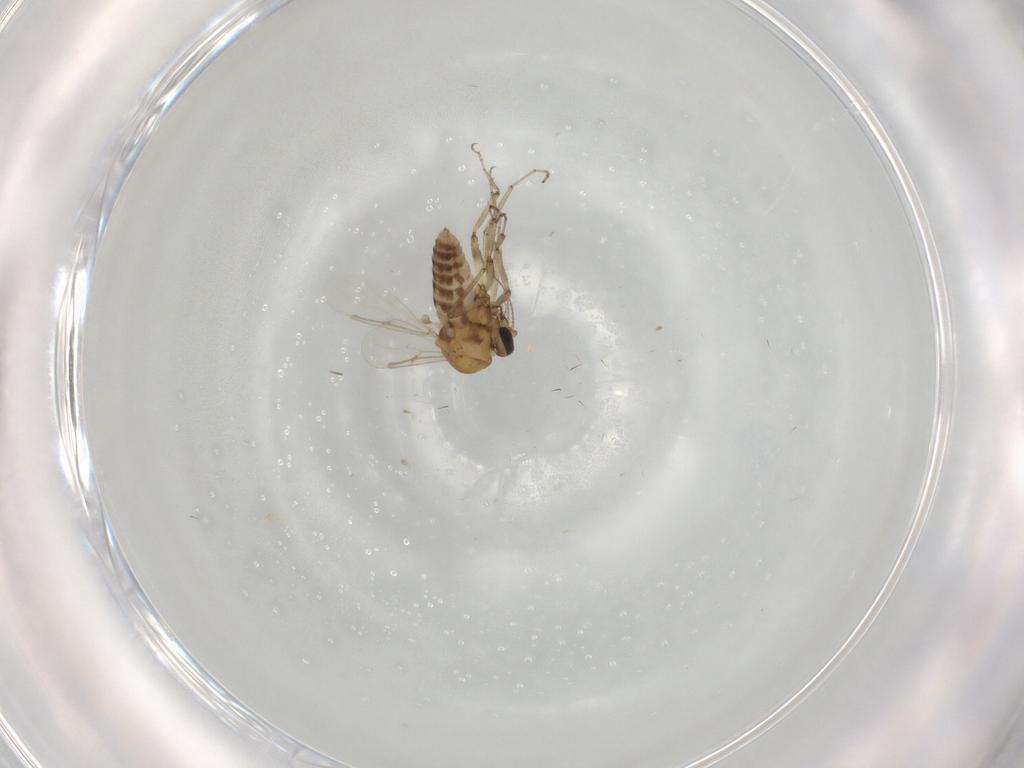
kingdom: Animalia
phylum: Arthropoda
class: Insecta
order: Diptera
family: Ceratopogonidae
